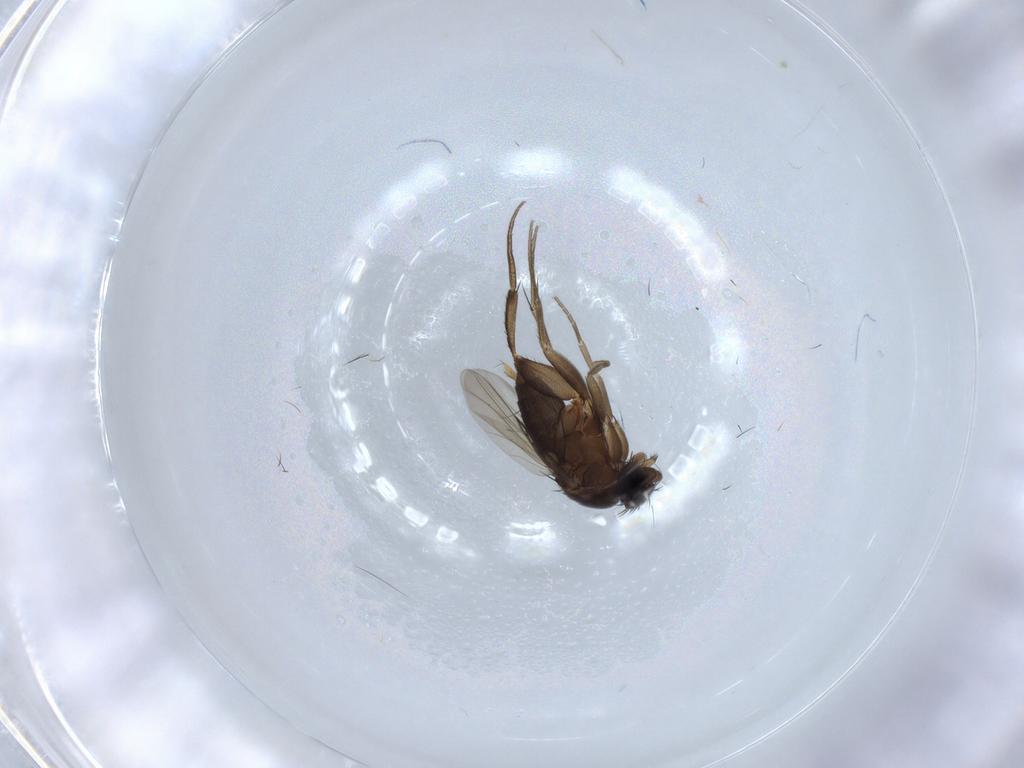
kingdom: Animalia
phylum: Arthropoda
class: Insecta
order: Diptera
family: Phoridae
